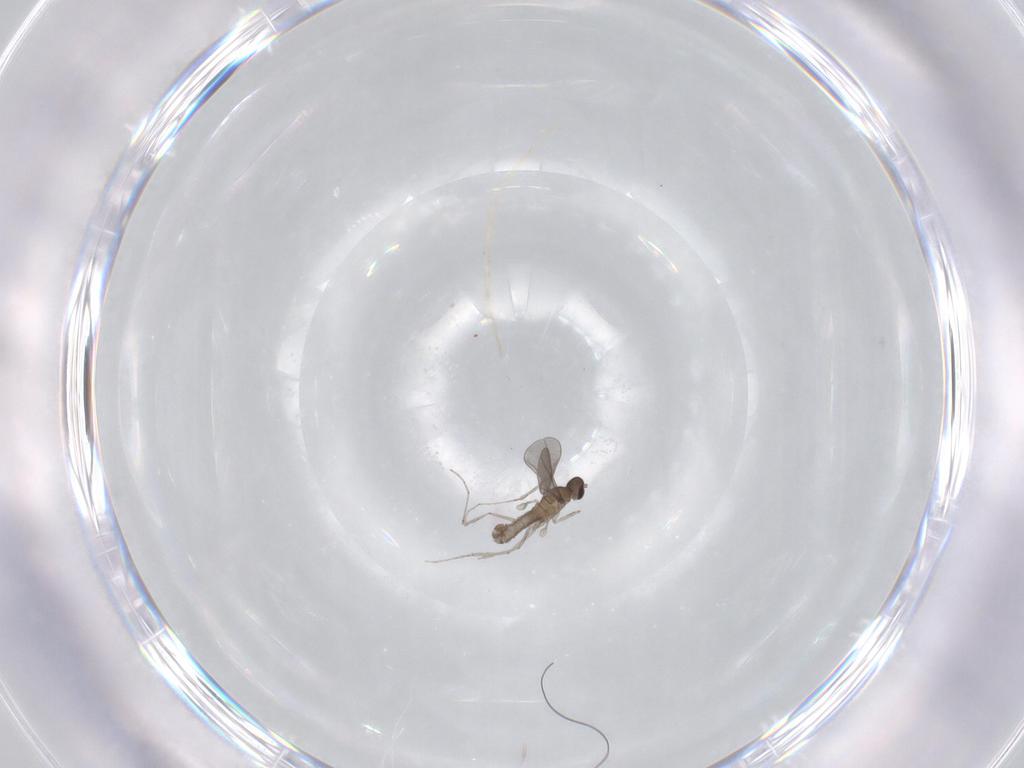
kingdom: Animalia
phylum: Arthropoda
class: Insecta
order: Diptera
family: Cecidomyiidae
